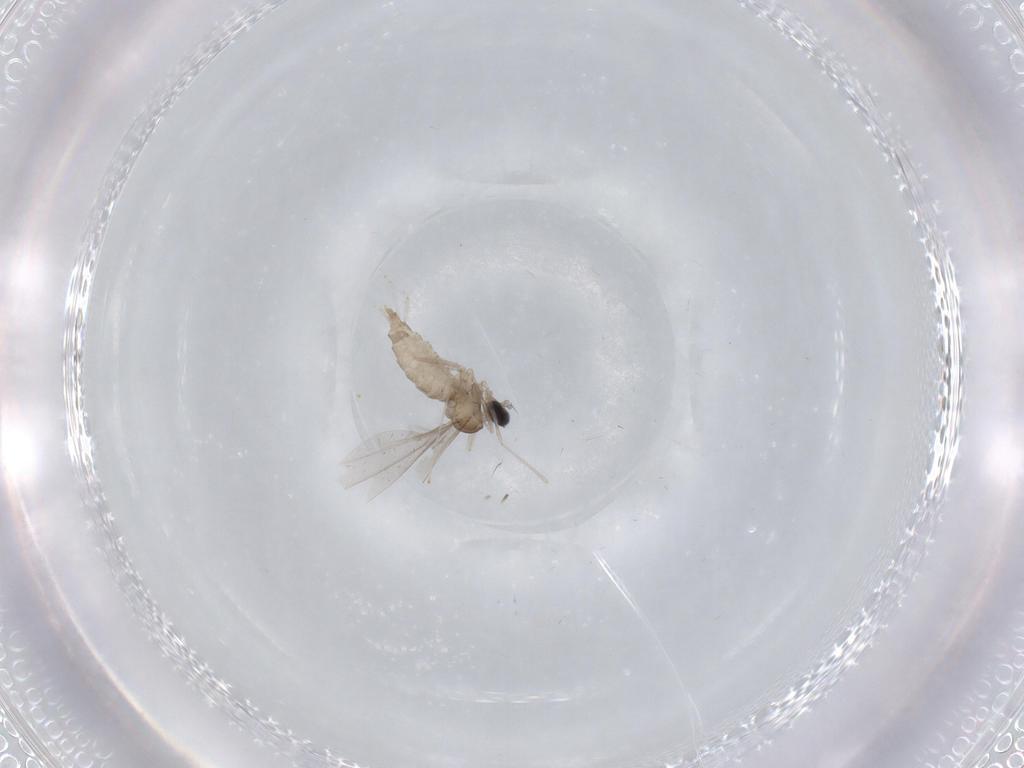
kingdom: Animalia
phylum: Arthropoda
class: Insecta
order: Diptera
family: Cecidomyiidae
